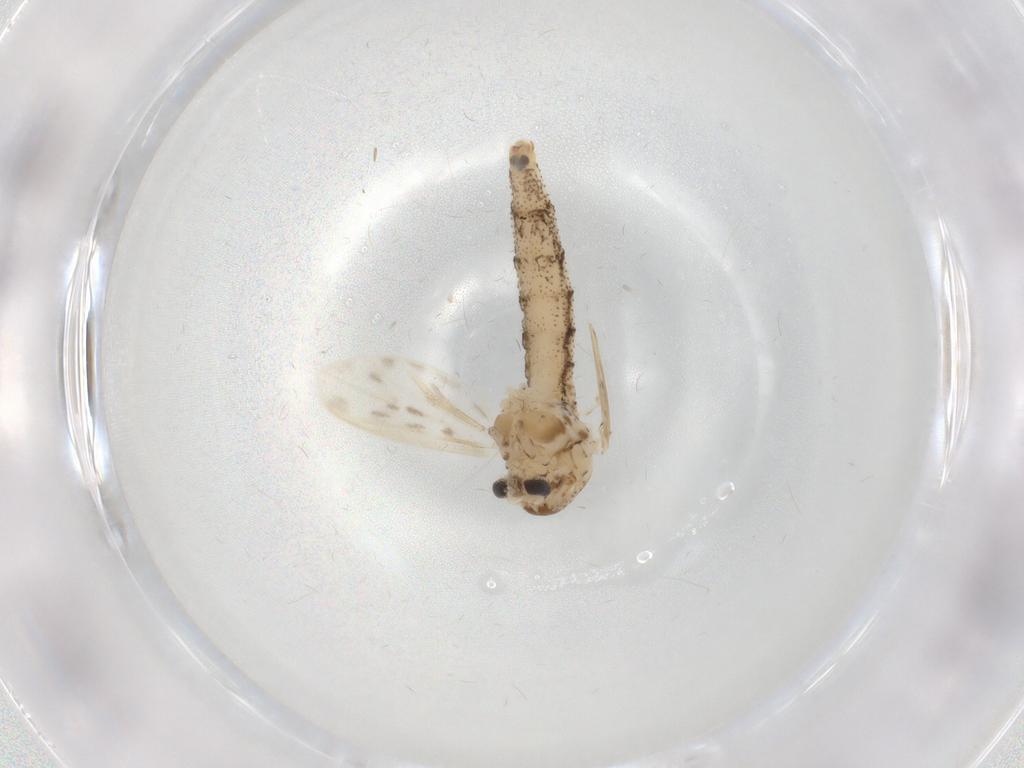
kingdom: Animalia
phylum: Arthropoda
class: Insecta
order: Diptera
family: Chaoboridae
